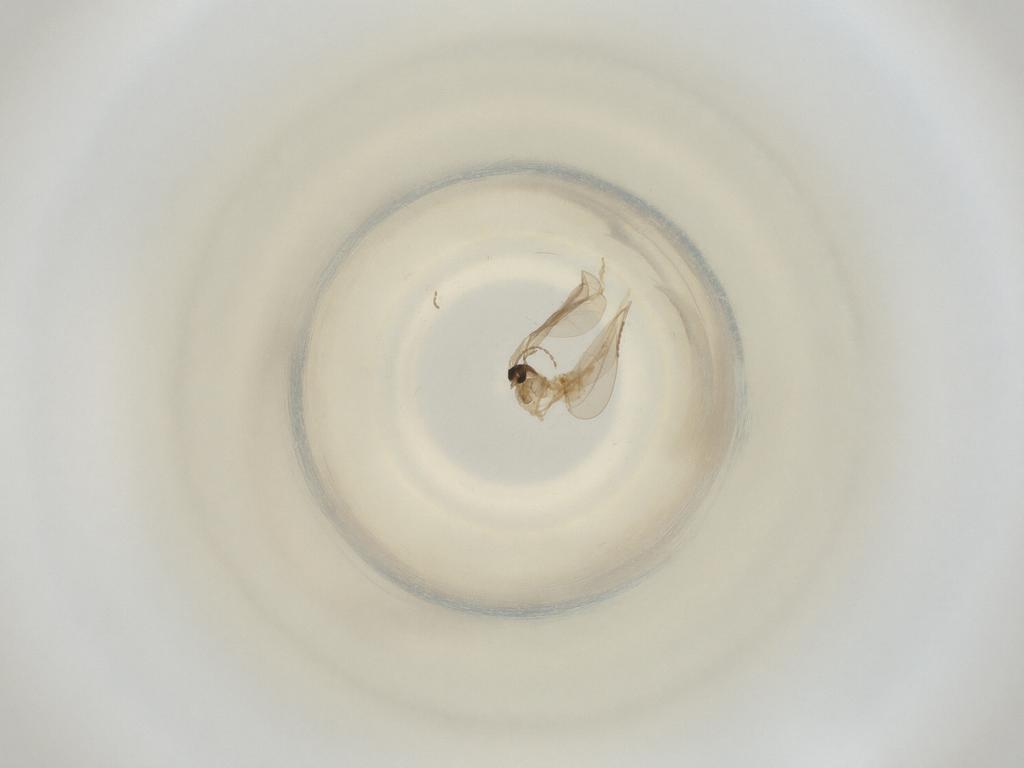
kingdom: Animalia
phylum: Arthropoda
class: Insecta
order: Diptera
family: Cecidomyiidae
